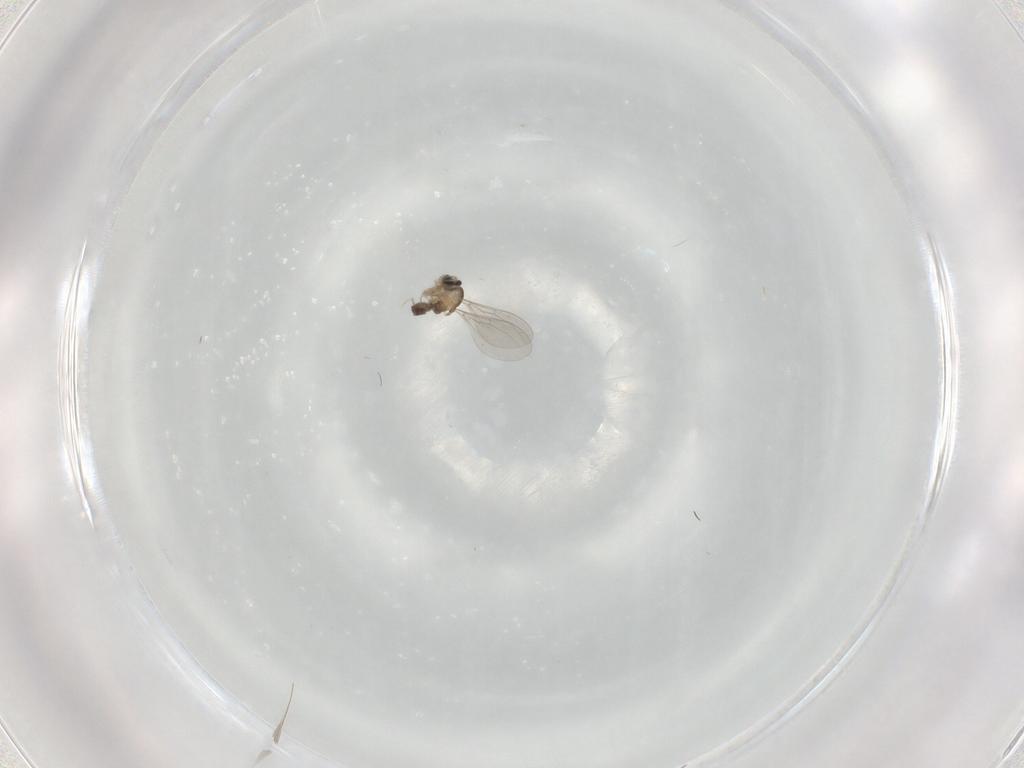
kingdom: Animalia
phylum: Arthropoda
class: Insecta
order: Diptera
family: Cecidomyiidae
